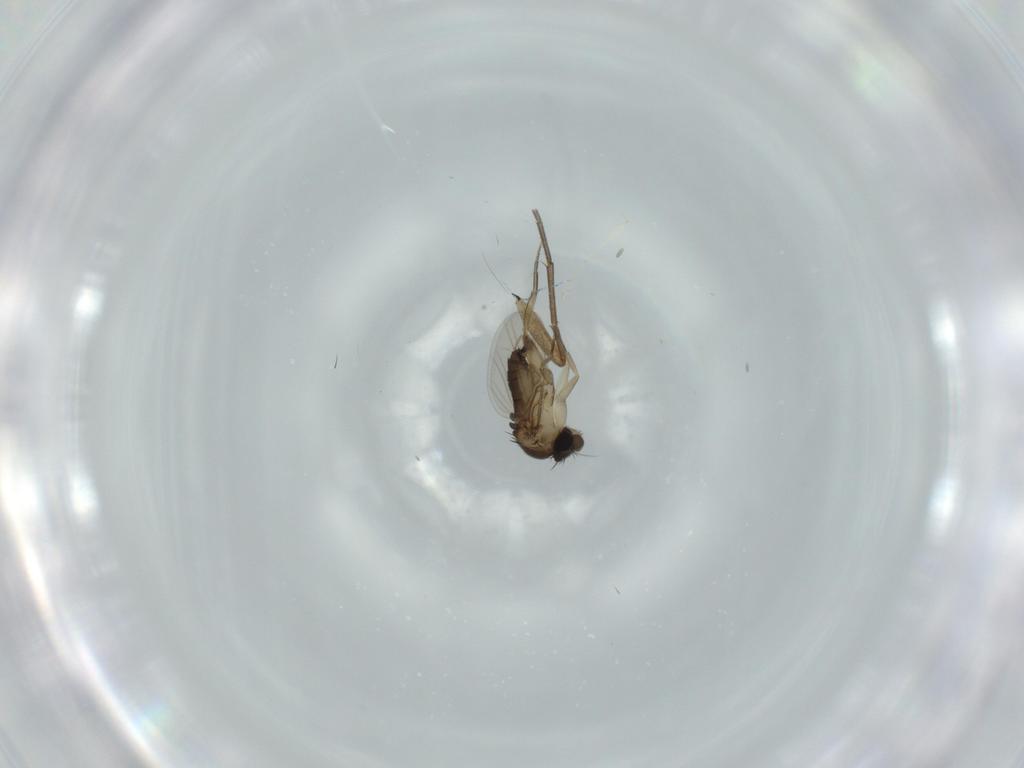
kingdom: Animalia
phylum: Arthropoda
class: Insecta
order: Diptera
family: Phoridae
